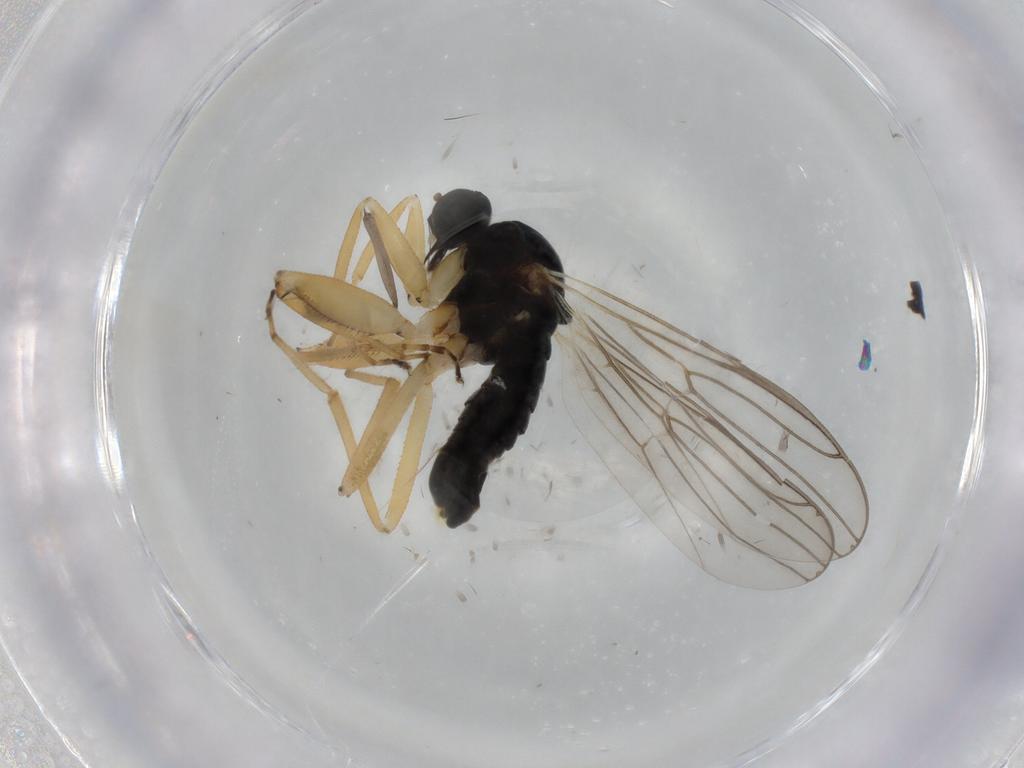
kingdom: Animalia
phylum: Arthropoda
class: Insecta
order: Diptera
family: Hybotidae
